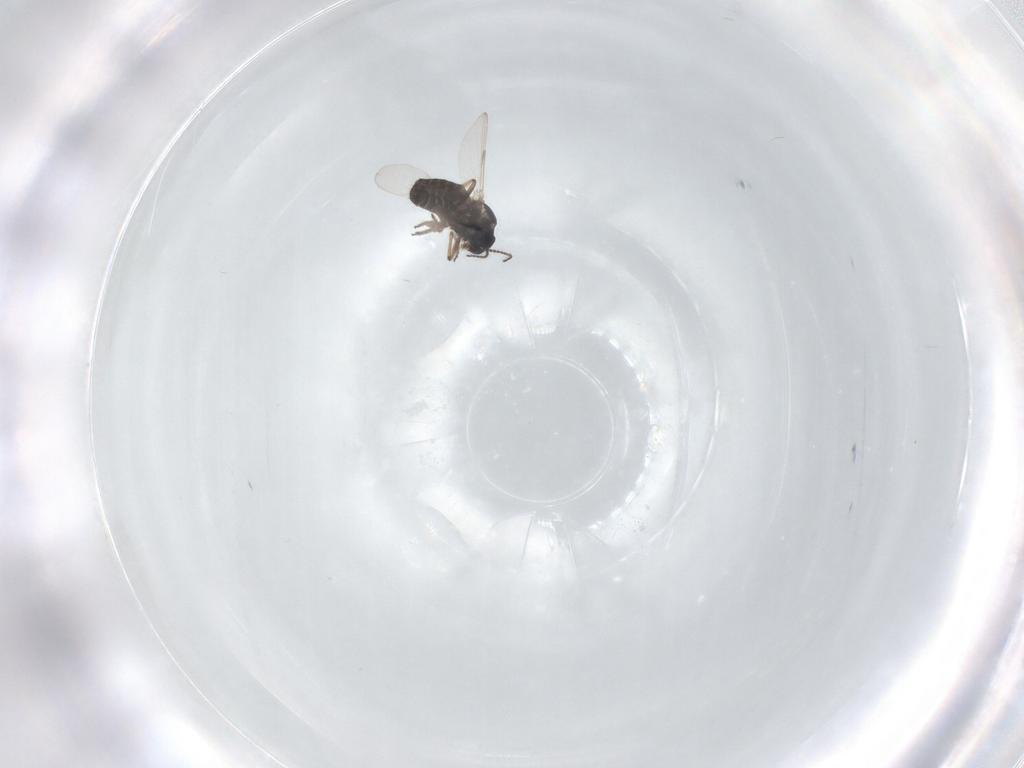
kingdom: Animalia
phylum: Arthropoda
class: Insecta
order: Diptera
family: Ceratopogonidae
